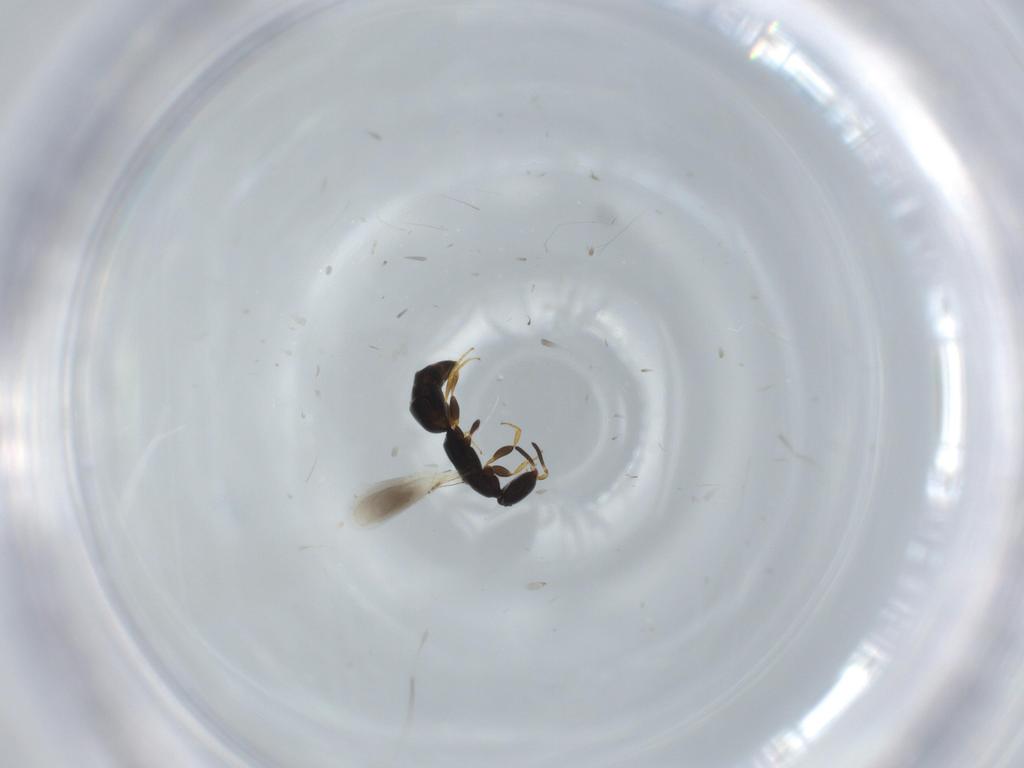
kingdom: Animalia
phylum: Arthropoda
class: Insecta
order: Hymenoptera
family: Bethylidae
